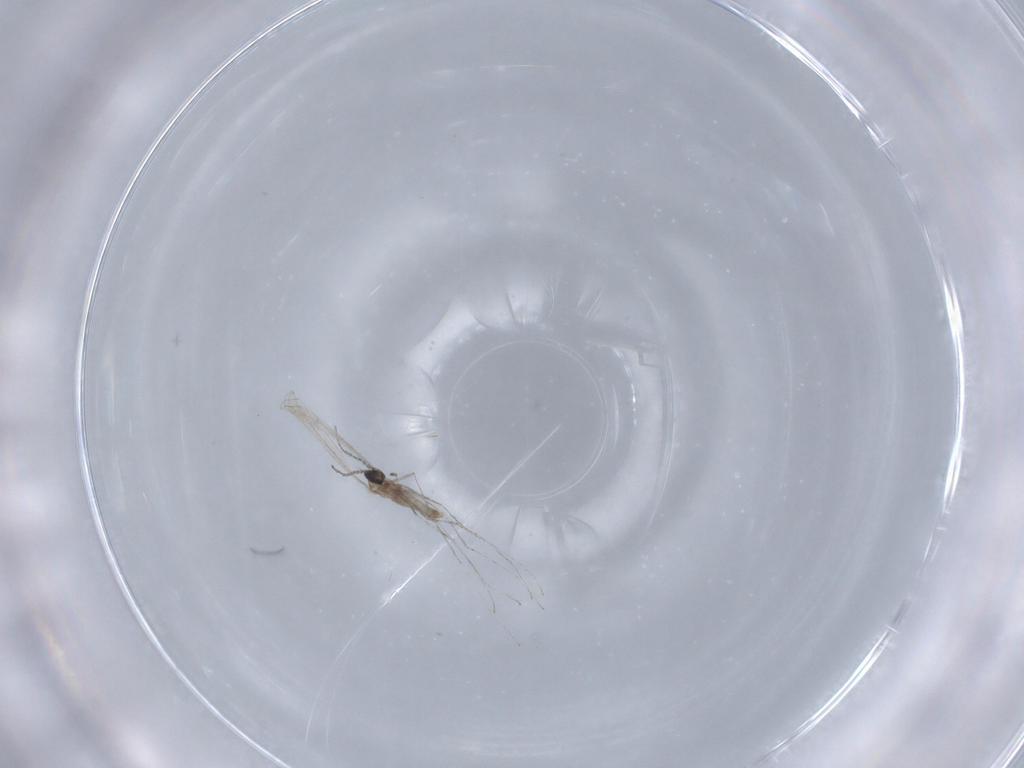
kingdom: Animalia
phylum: Arthropoda
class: Insecta
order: Diptera
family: Cecidomyiidae
